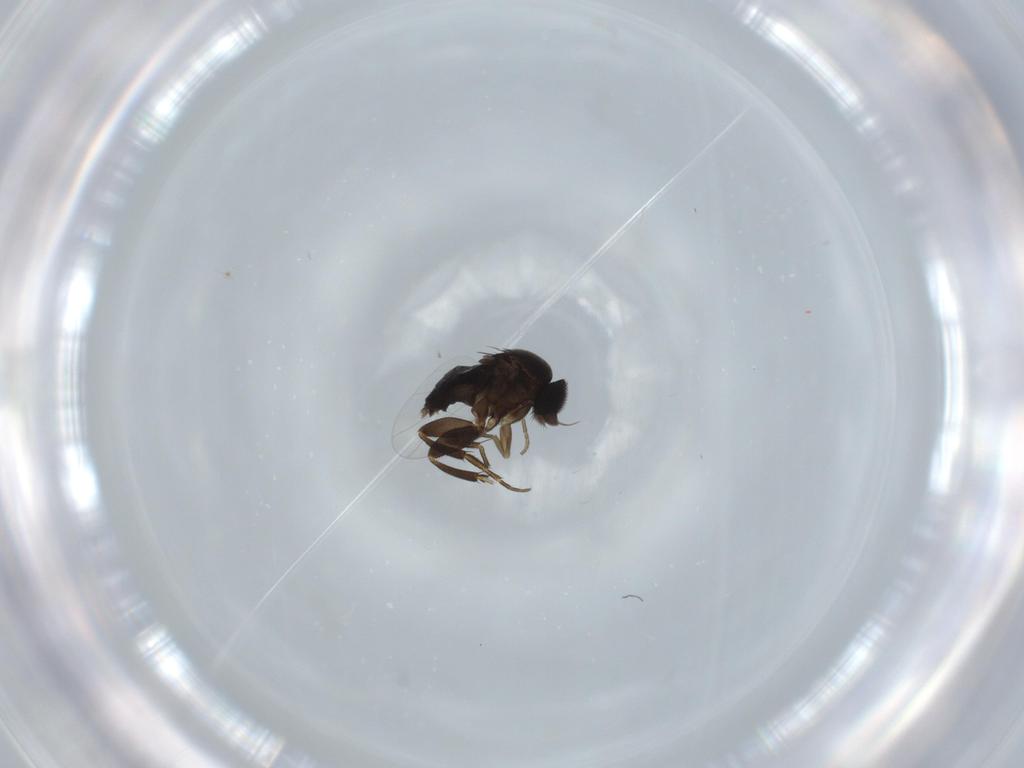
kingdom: Animalia
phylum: Arthropoda
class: Insecta
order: Diptera
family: Phoridae
